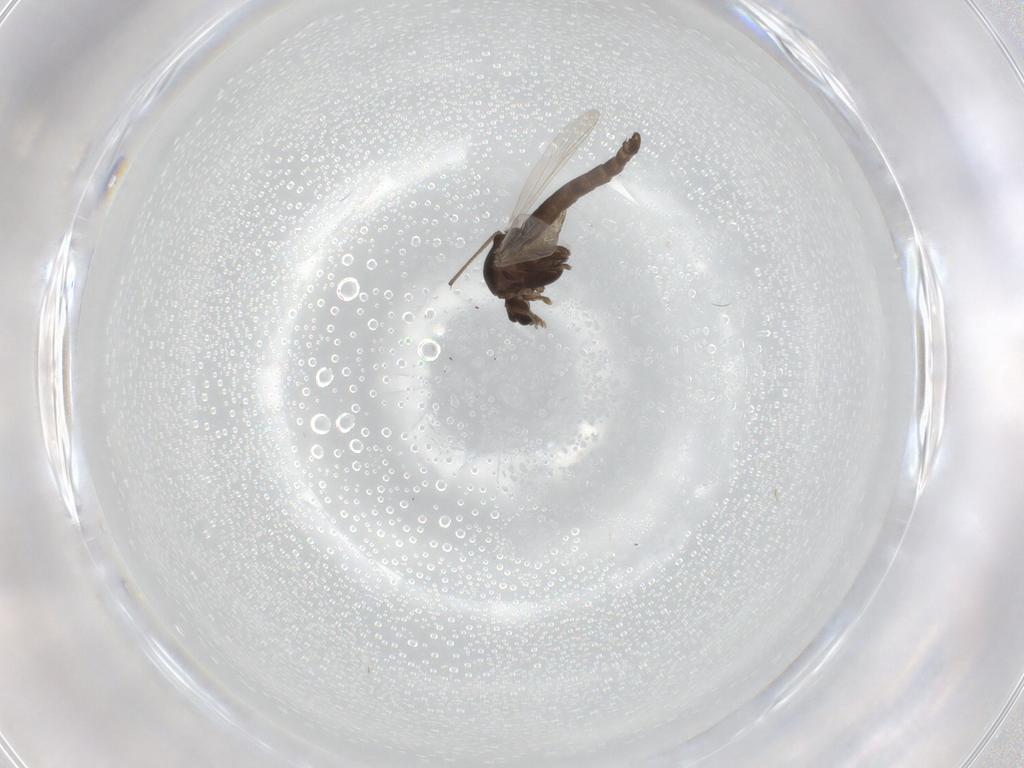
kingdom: Animalia
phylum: Arthropoda
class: Insecta
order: Diptera
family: Chironomidae
